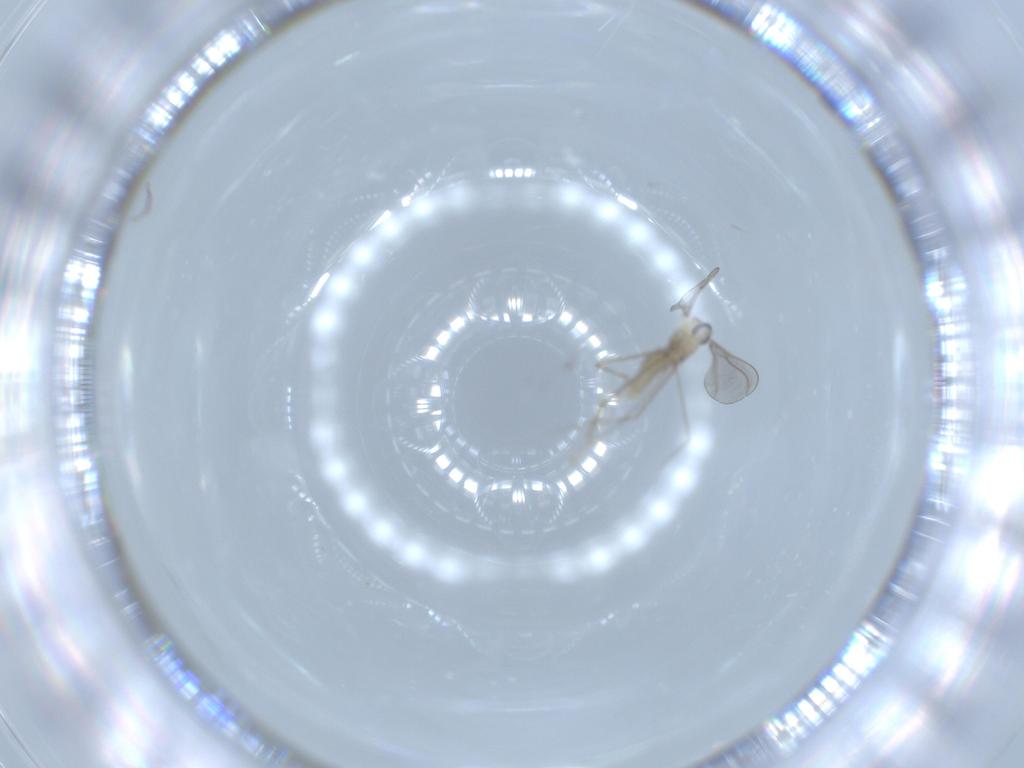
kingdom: Animalia
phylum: Arthropoda
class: Insecta
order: Diptera
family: Cecidomyiidae
